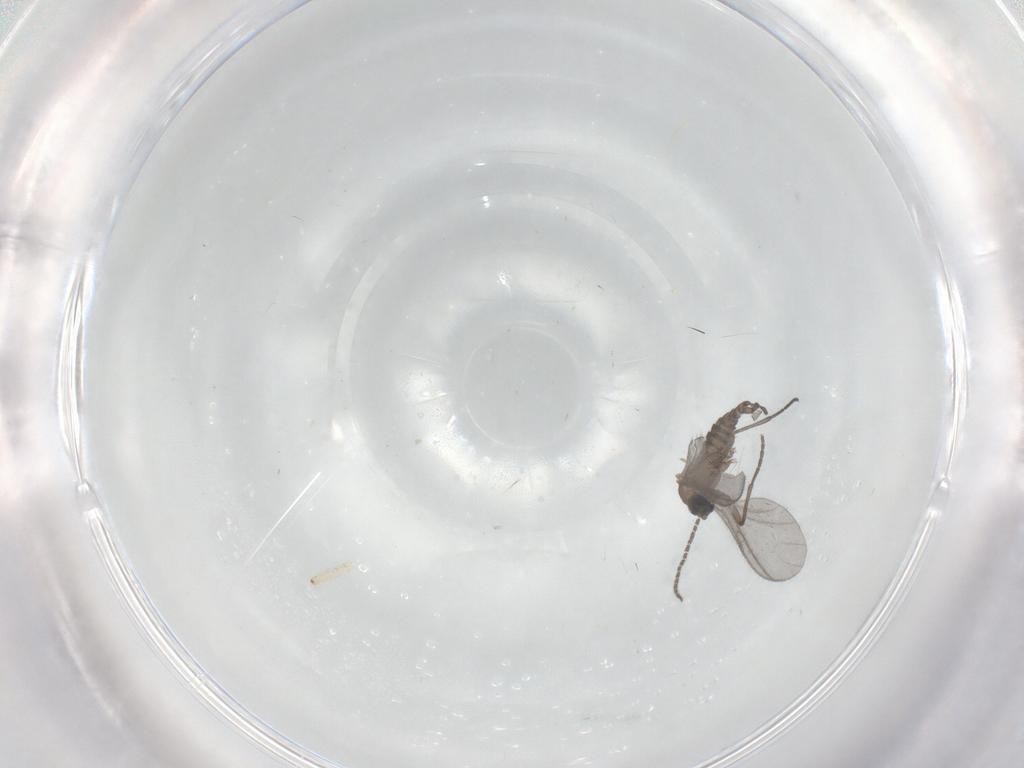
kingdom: Animalia
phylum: Arthropoda
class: Insecta
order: Diptera
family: Sciaridae
